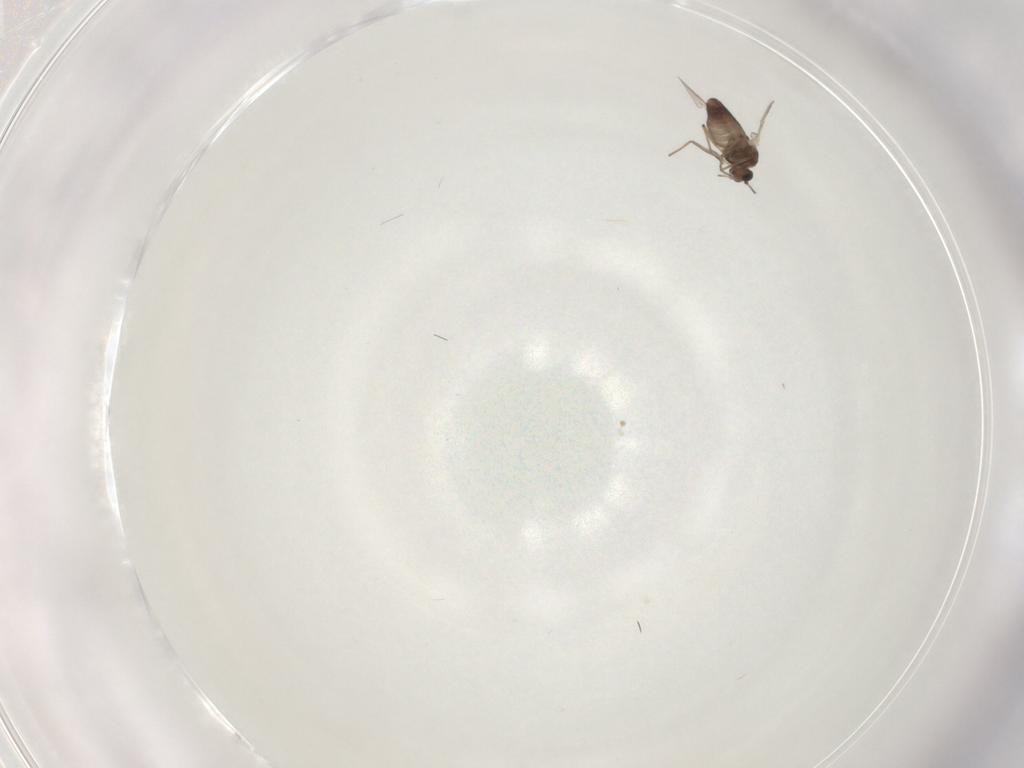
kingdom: Animalia
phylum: Arthropoda
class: Insecta
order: Diptera
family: Chironomidae
